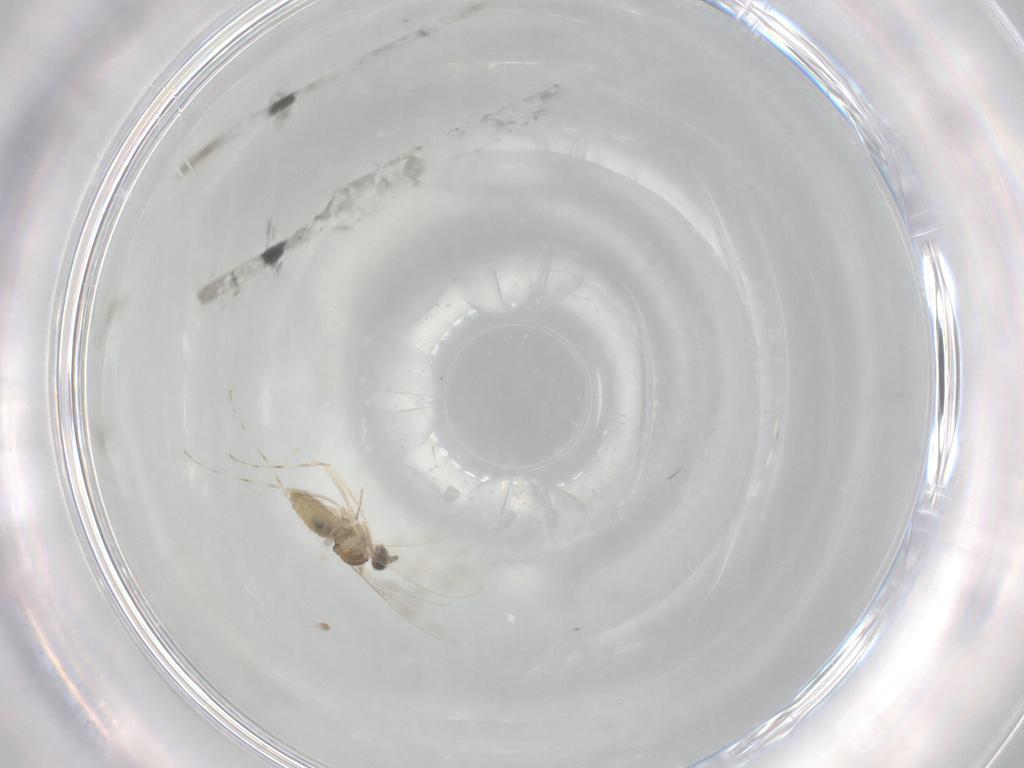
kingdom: Animalia
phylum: Arthropoda
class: Insecta
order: Diptera
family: Cecidomyiidae
